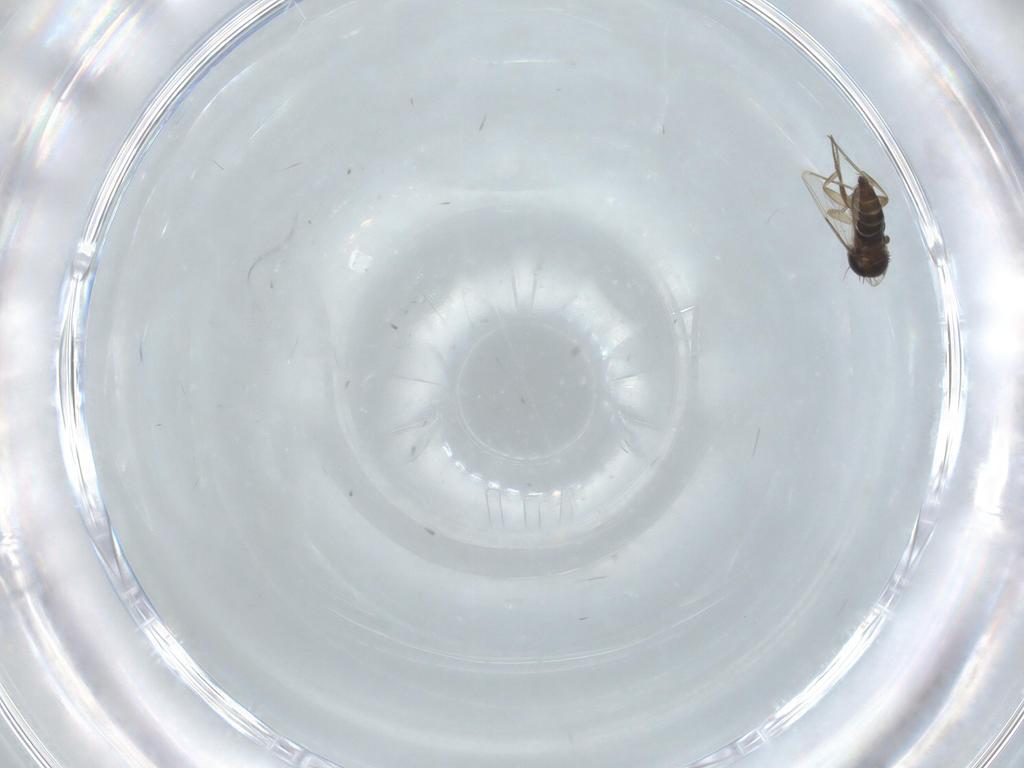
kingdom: Animalia
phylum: Arthropoda
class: Insecta
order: Diptera
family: Phoridae
